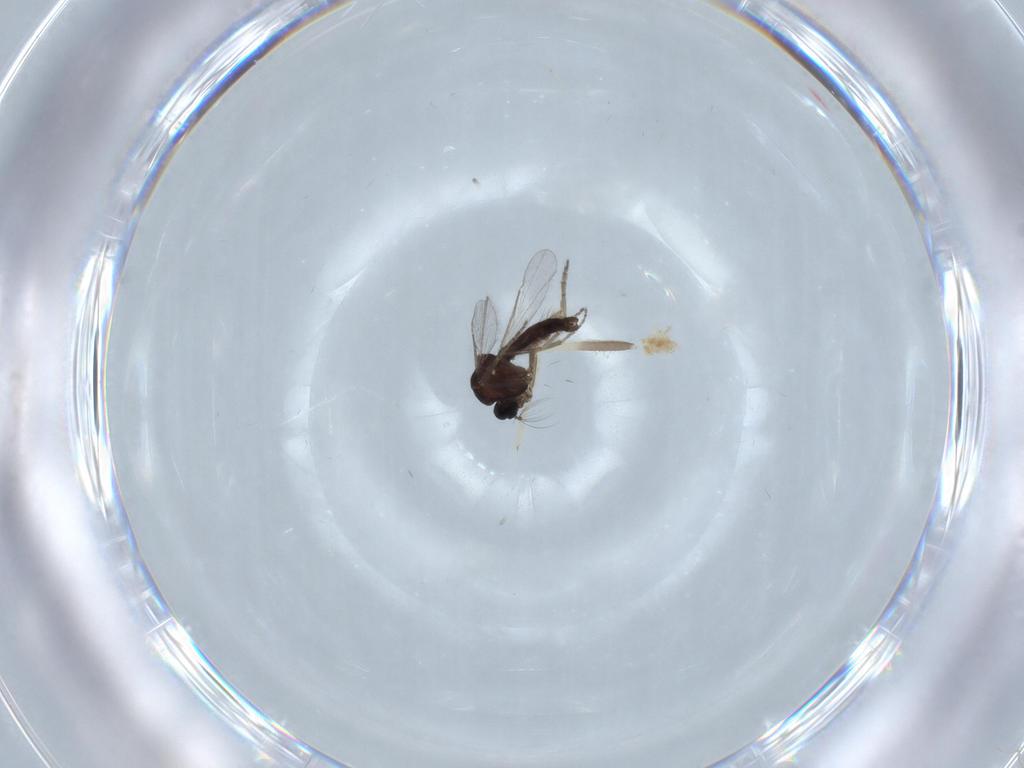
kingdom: Animalia
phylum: Arthropoda
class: Insecta
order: Diptera
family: Ceratopogonidae
